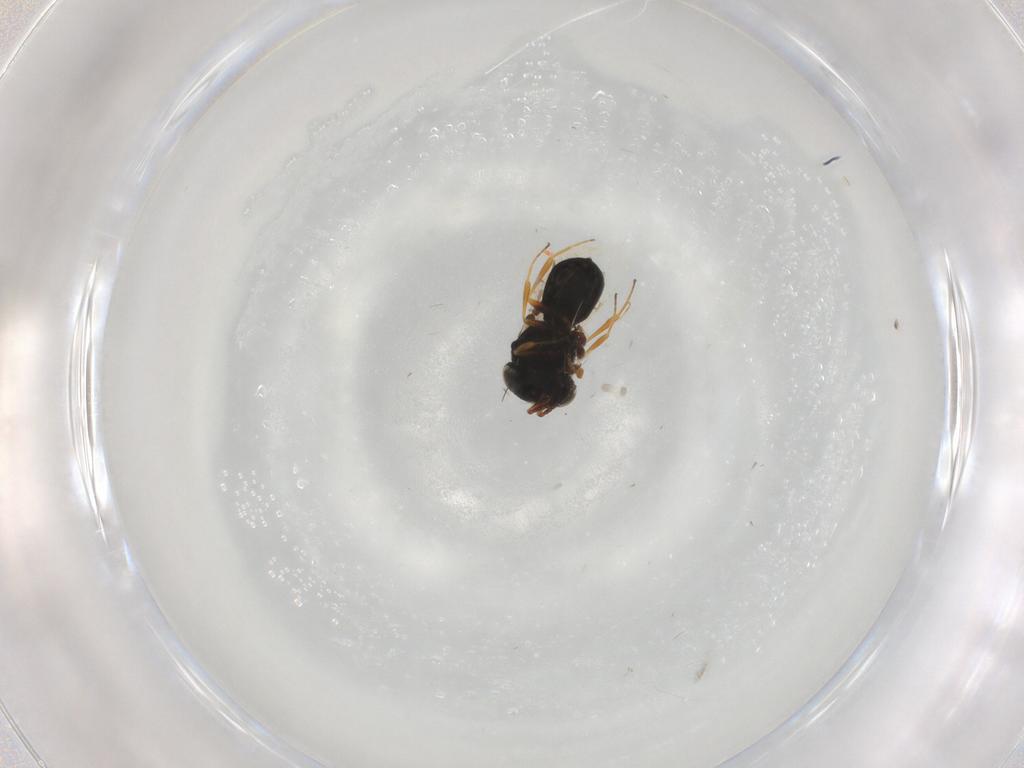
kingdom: Animalia
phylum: Arthropoda
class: Insecta
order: Hymenoptera
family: Scelionidae
